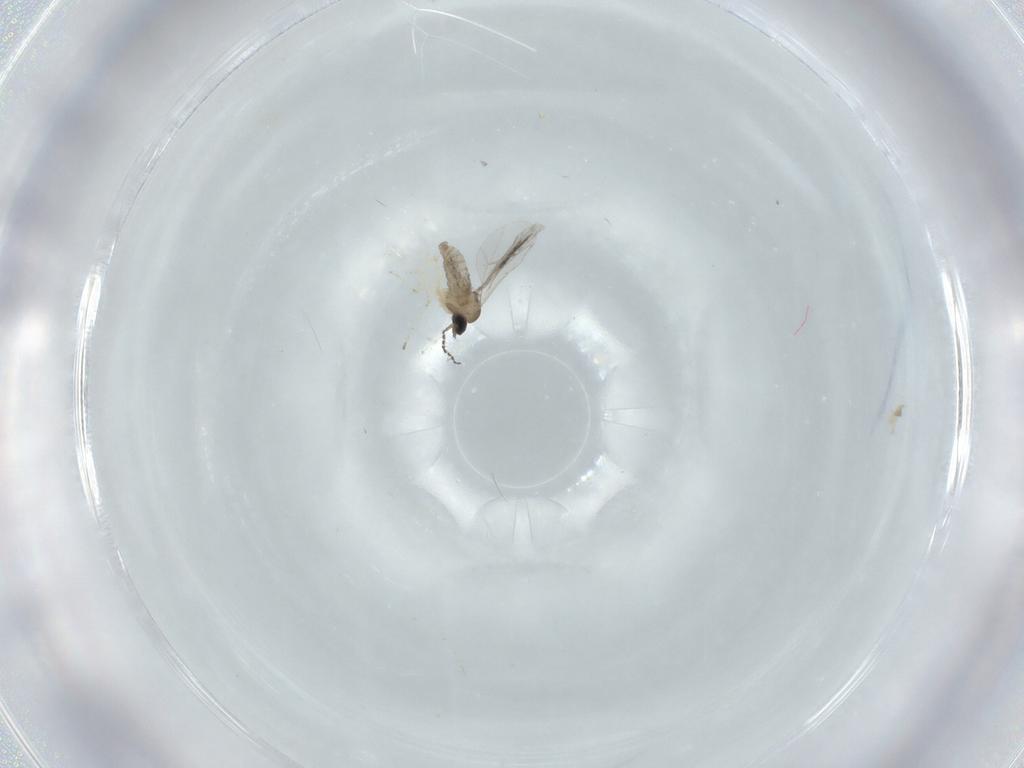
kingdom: Animalia
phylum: Arthropoda
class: Insecta
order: Diptera
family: Cecidomyiidae
